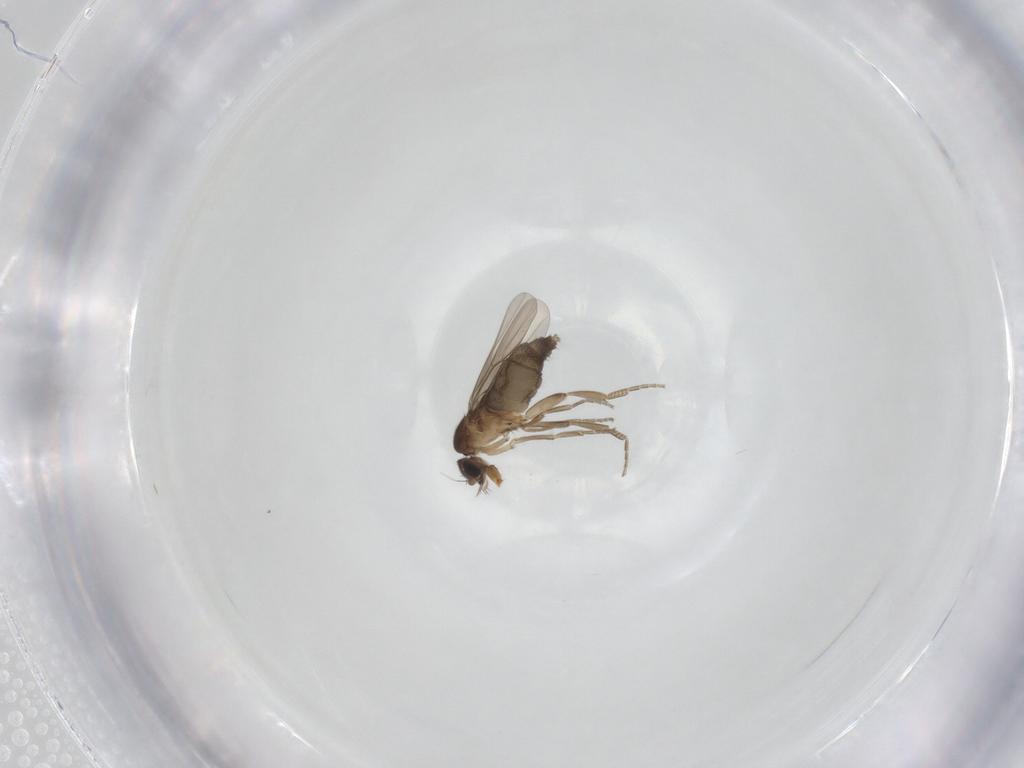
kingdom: Animalia
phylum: Arthropoda
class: Insecta
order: Diptera
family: Phoridae
